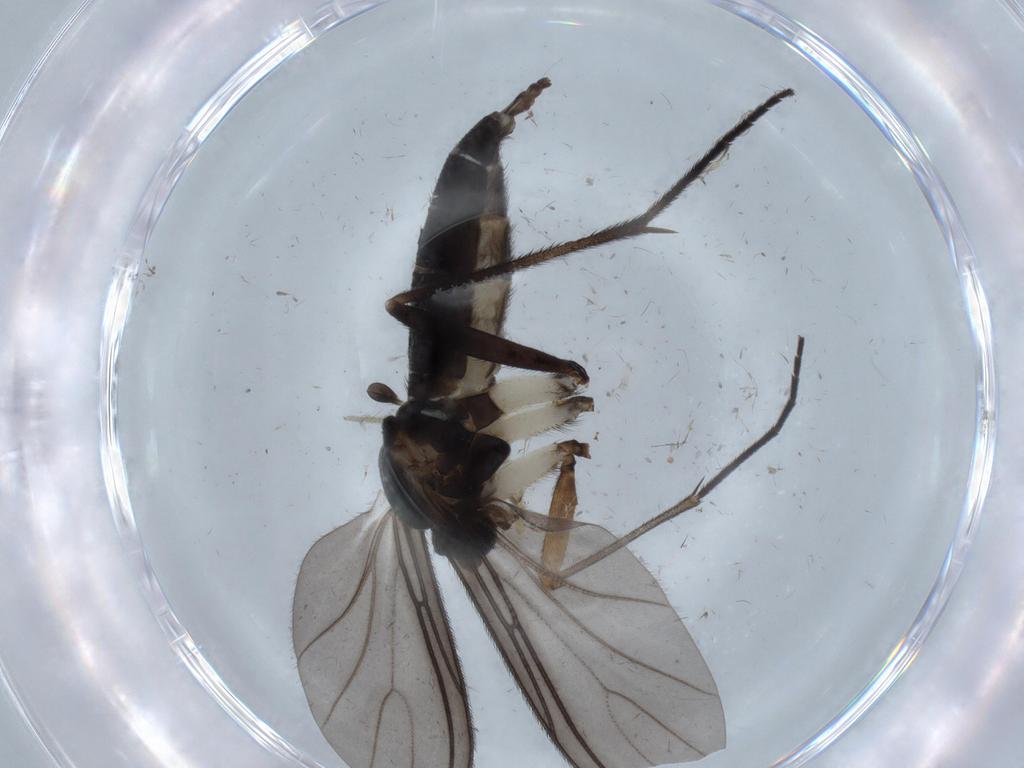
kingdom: Animalia
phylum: Arthropoda
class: Insecta
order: Diptera
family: Sciaridae
